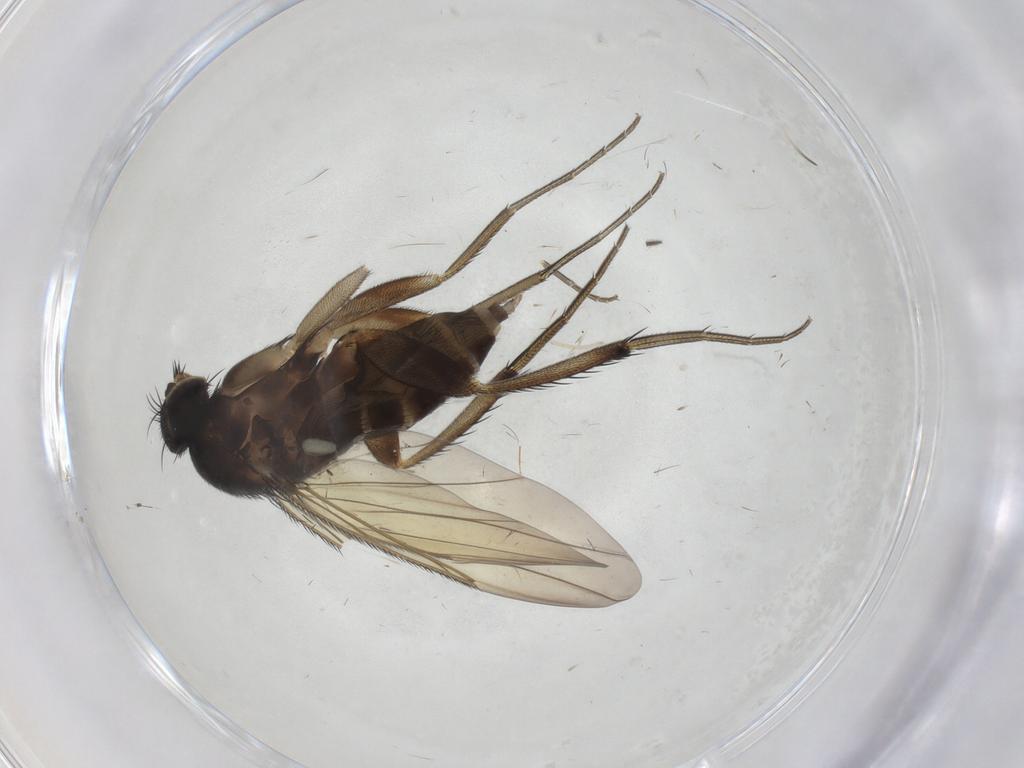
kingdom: Animalia
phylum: Arthropoda
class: Insecta
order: Diptera
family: Phoridae
